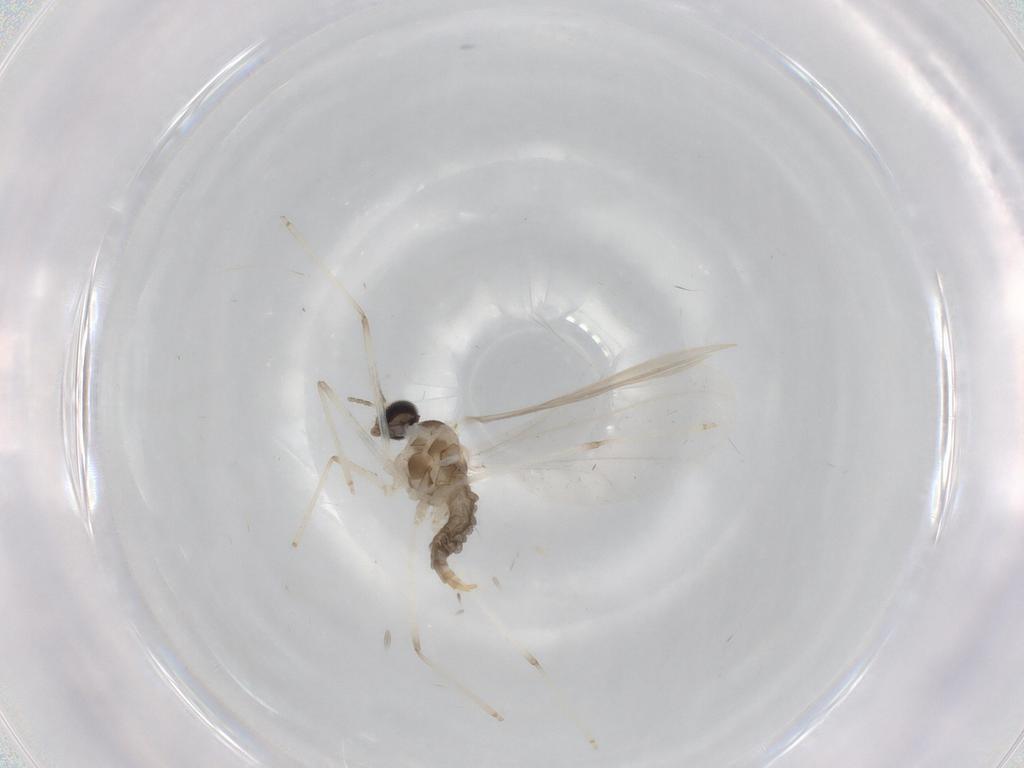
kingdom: Animalia
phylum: Arthropoda
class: Insecta
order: Diptera
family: Cecidomyiidae
